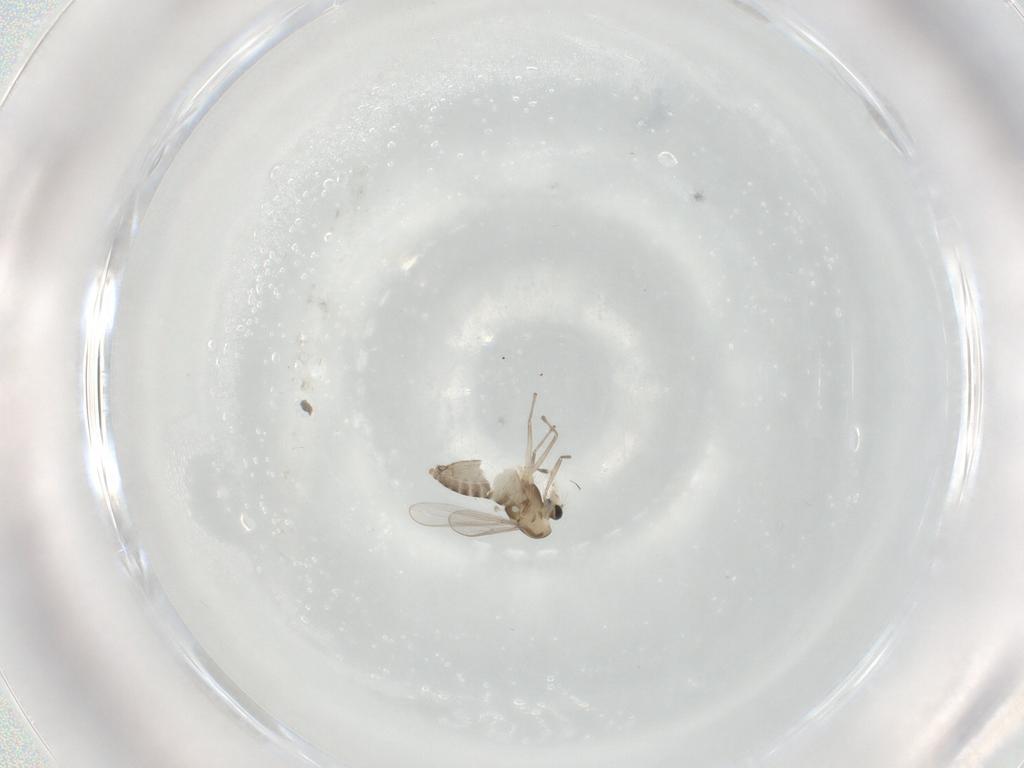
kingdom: Animalia
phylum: Arthropoda
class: Insecta
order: Diptera
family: Chironomidae
